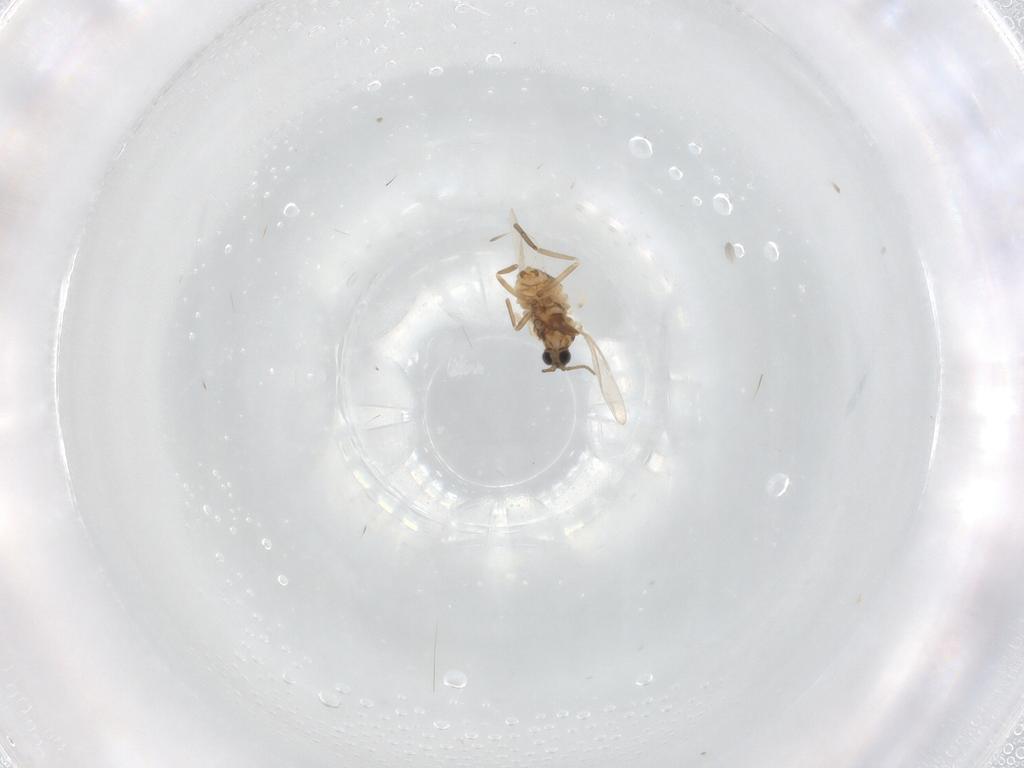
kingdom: Animalia
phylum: Arthropoda
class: Insecta
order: Diptera
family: Cecidomyiidae
